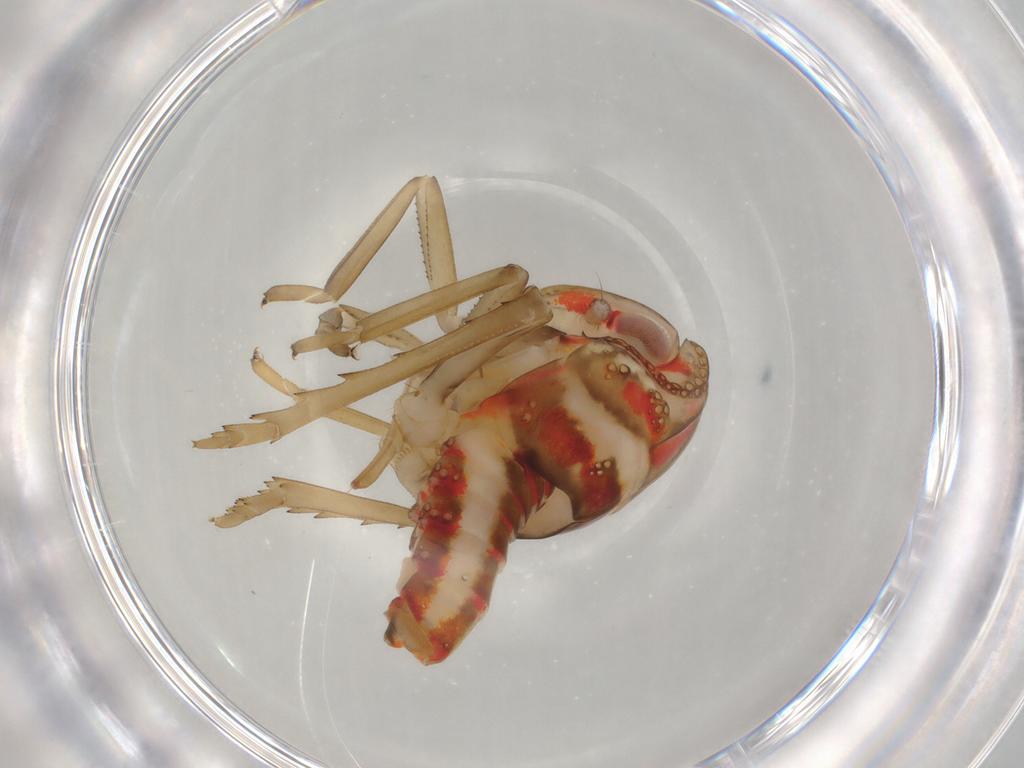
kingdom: Animalia
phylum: Arthropoda
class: Insecta
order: Hemiptera
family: Nogodinidae
